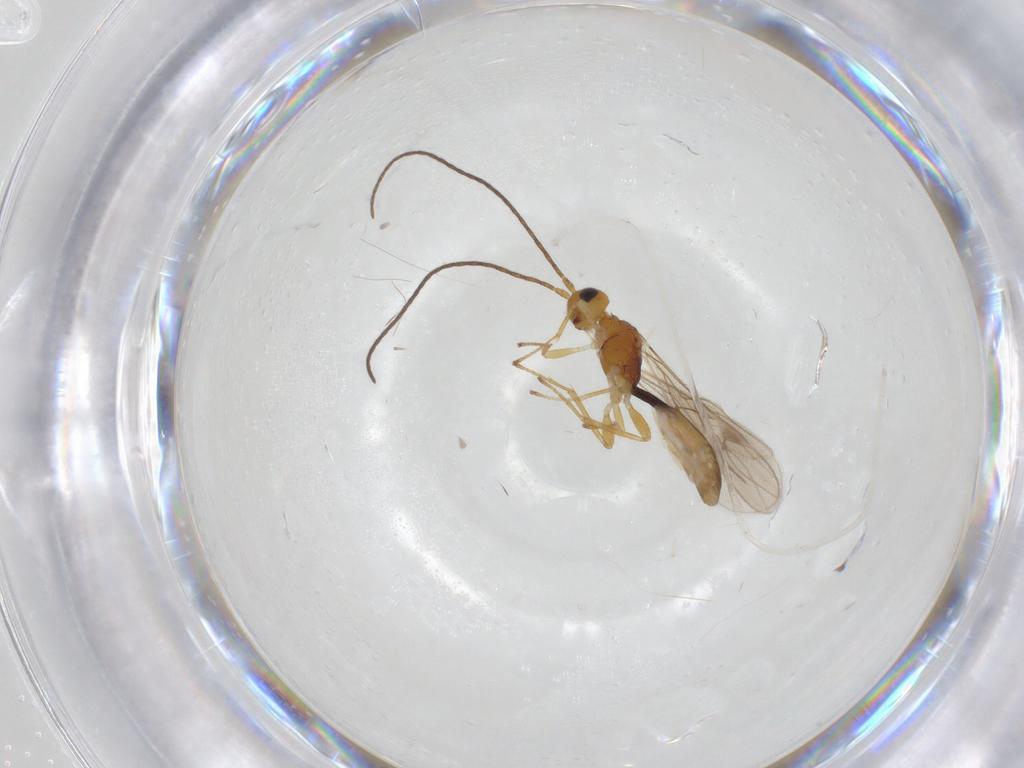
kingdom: Animalia
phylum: Arthropoda
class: Insecta
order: Hymenoptera
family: Braconidae
